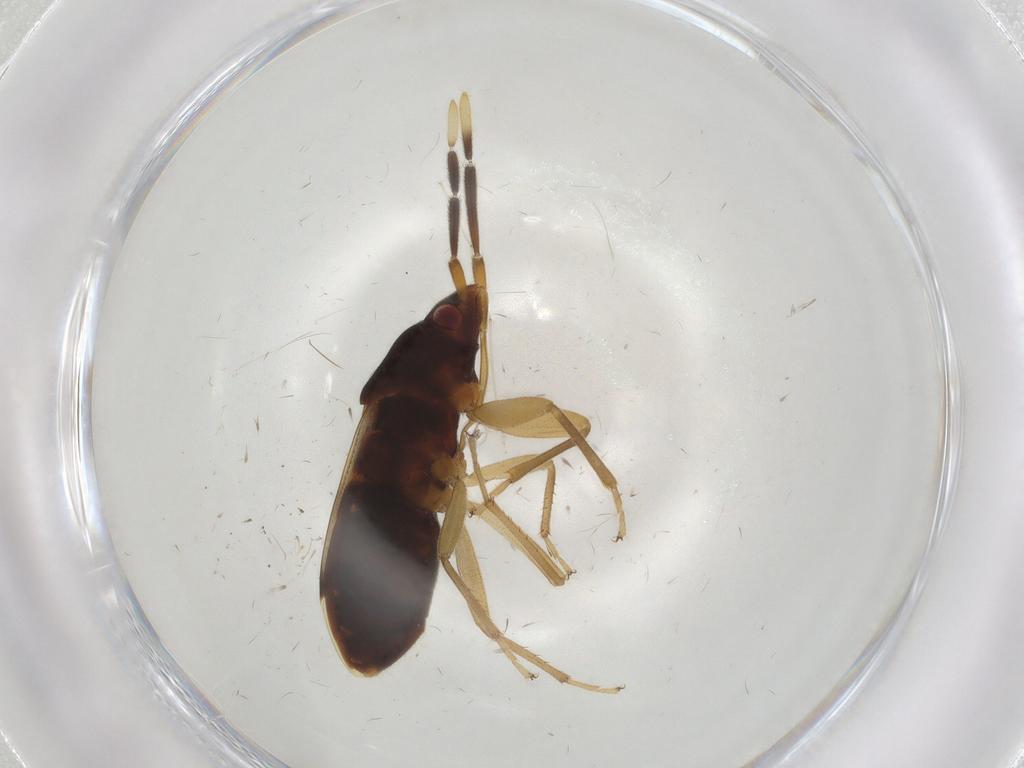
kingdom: Animalia
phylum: Arthropoda
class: Insecta
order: Hemiptera
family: Rhyparochromidae
